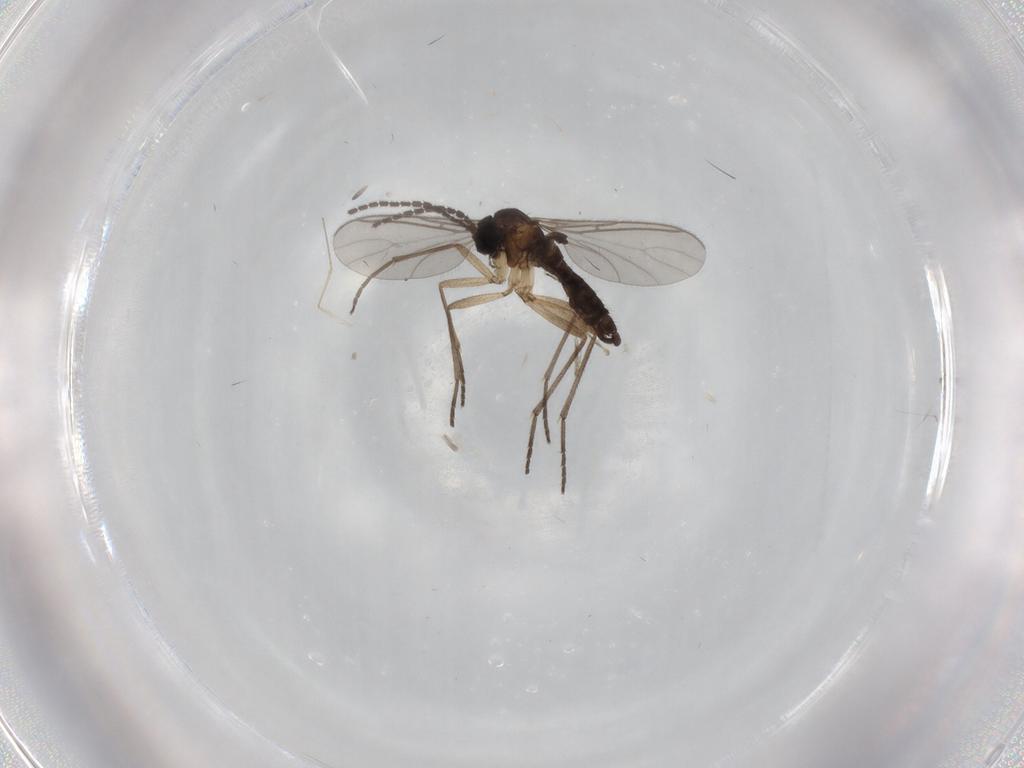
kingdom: Animalia
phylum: Arthropoda
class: Insecta
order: Diptera
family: Sciaridae
